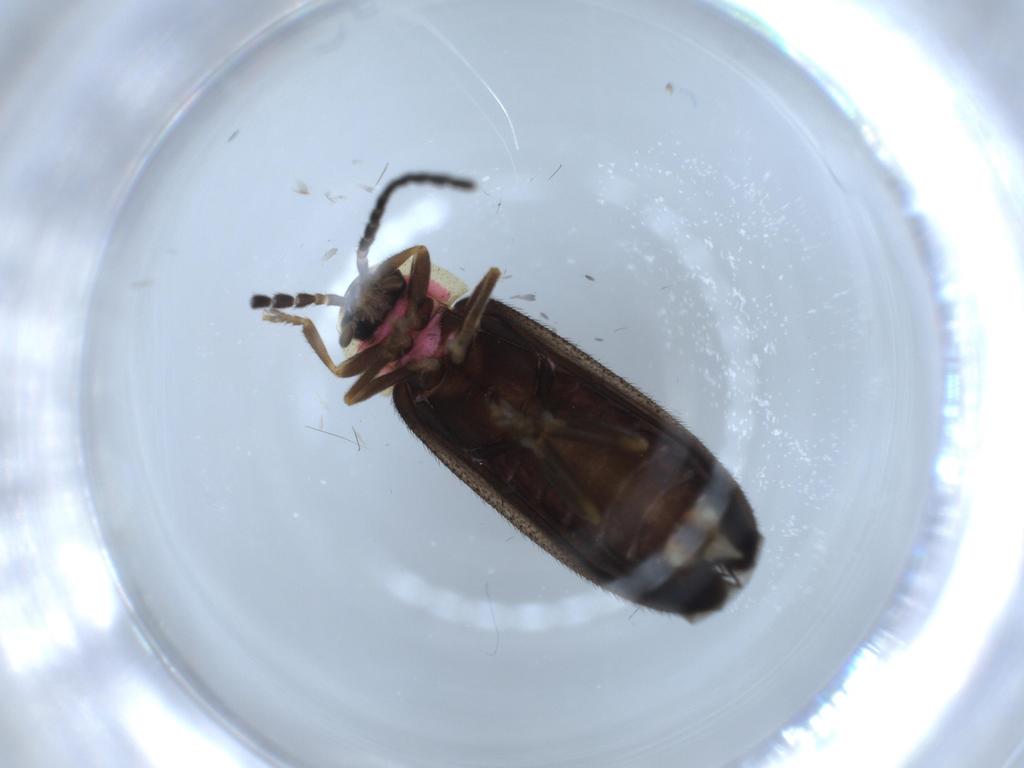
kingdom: Animalia
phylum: Arthropoda
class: Insecta
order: Coleoptera
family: Lampyridae
